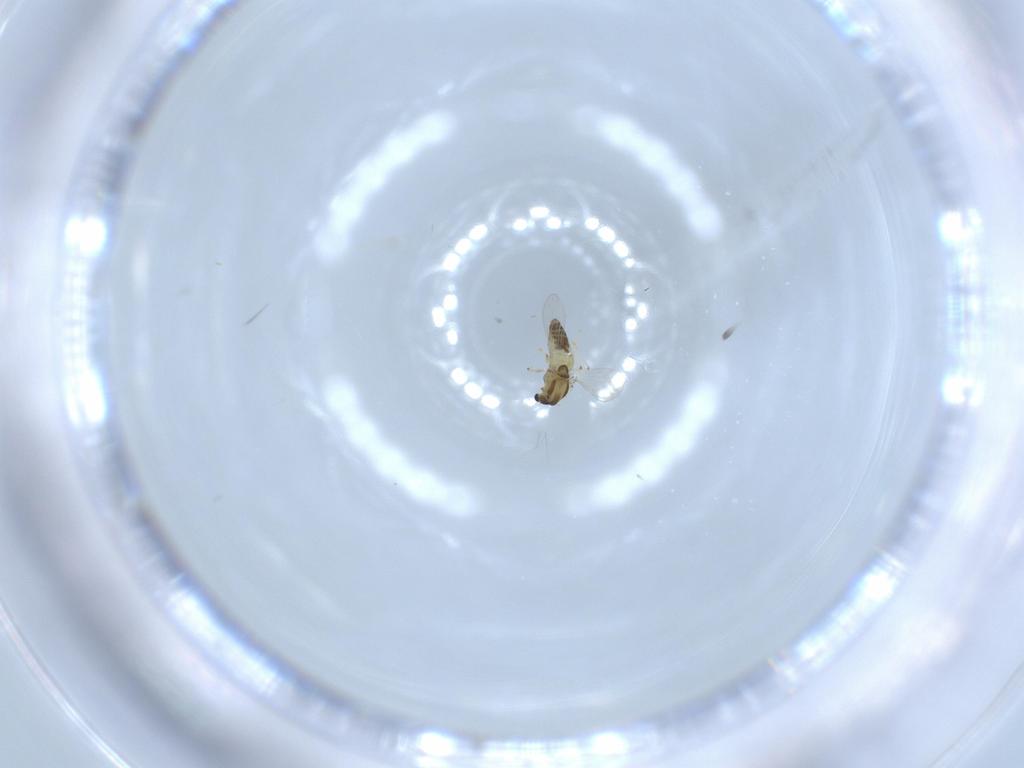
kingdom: Animalia
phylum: Arthropoda
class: Insecta
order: Diptera
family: Chironomidae
